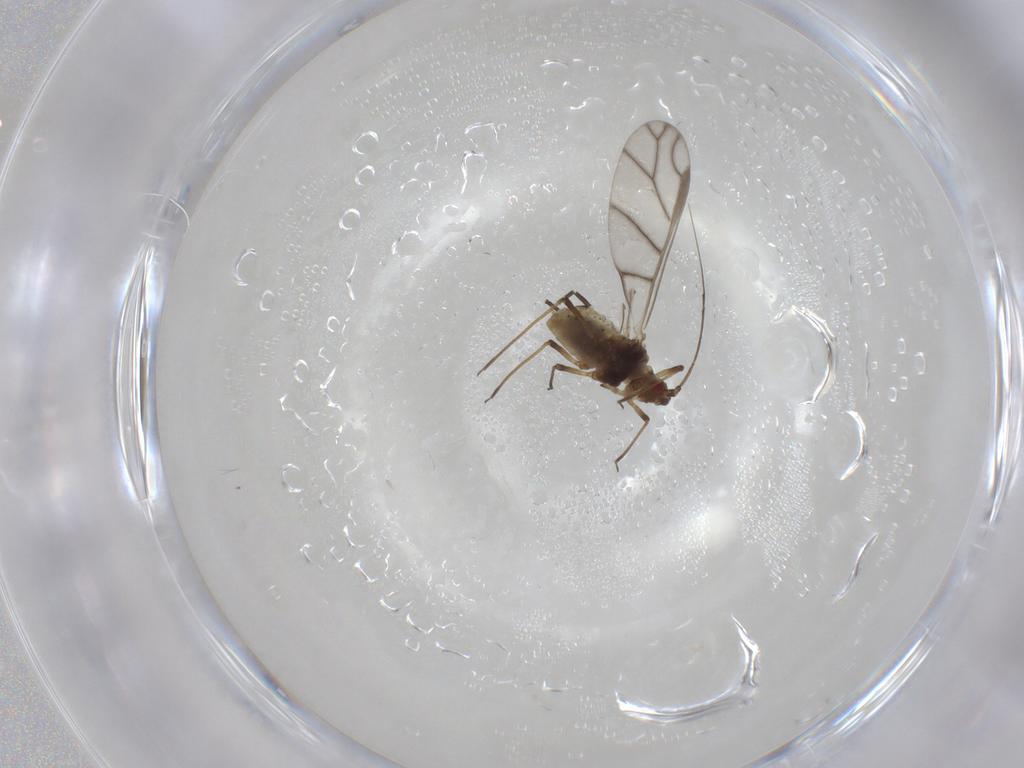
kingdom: Animalia
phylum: Arthropoda
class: Insecta
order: Hemiptera
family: Aphididae
